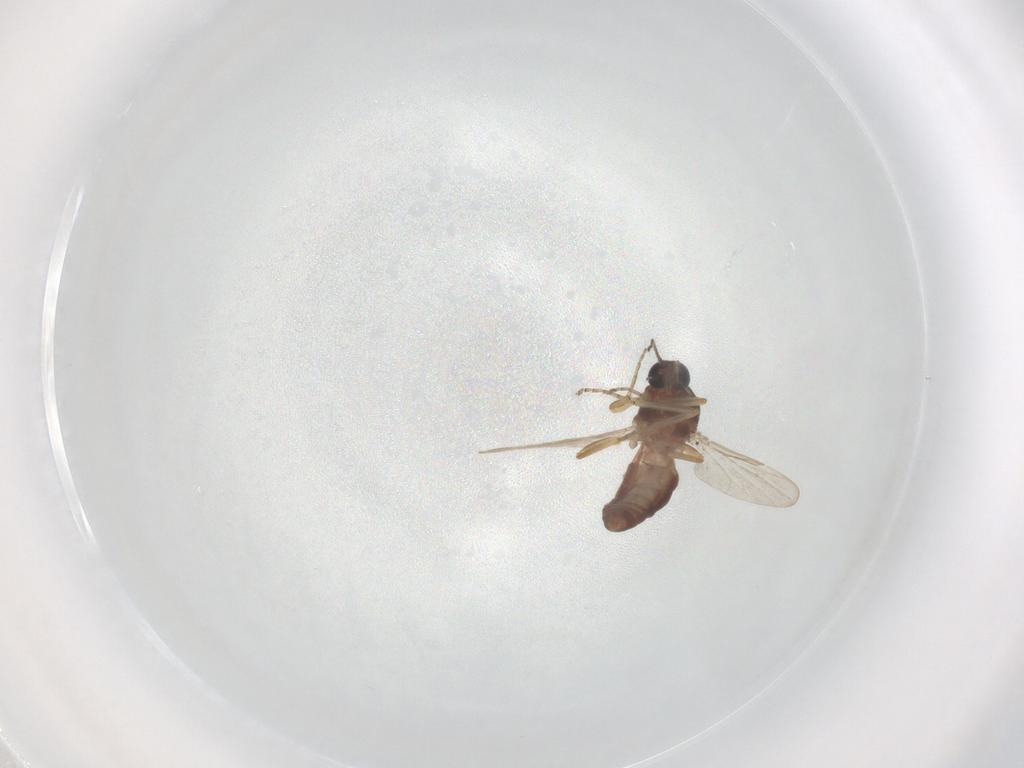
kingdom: Animalia
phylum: Arthropoda
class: Insecta
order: Diptera
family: Ceratopogonidae
